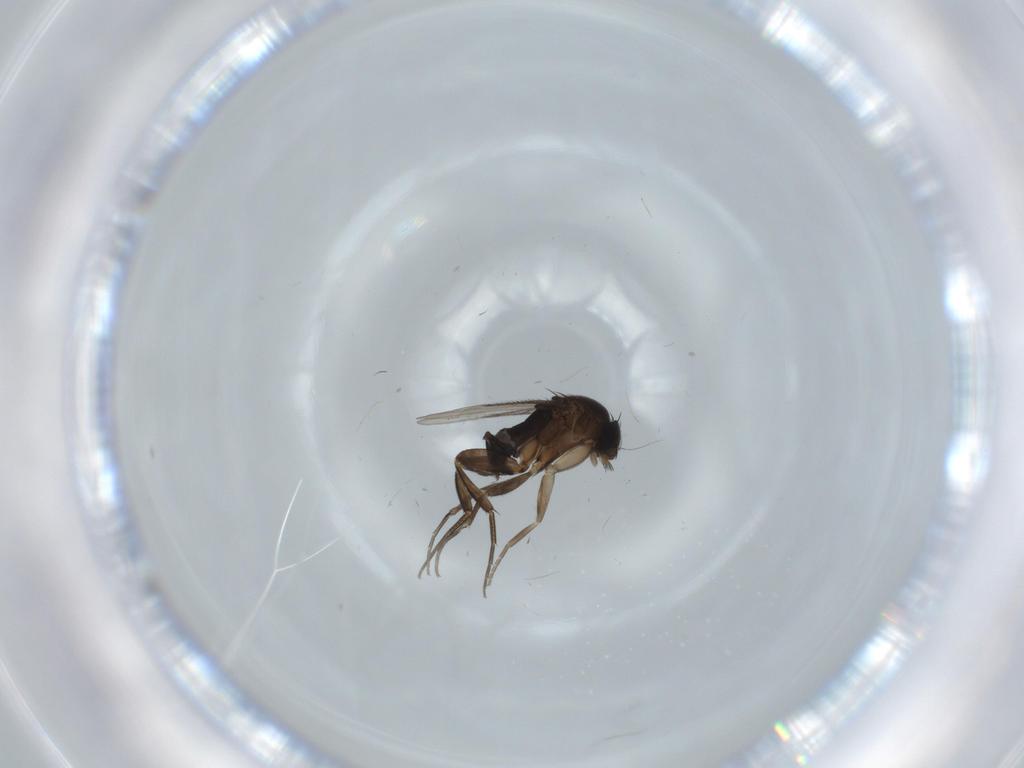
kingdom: Animalia
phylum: Arthropoda
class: Insecta
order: Diptera
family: Phoridae
